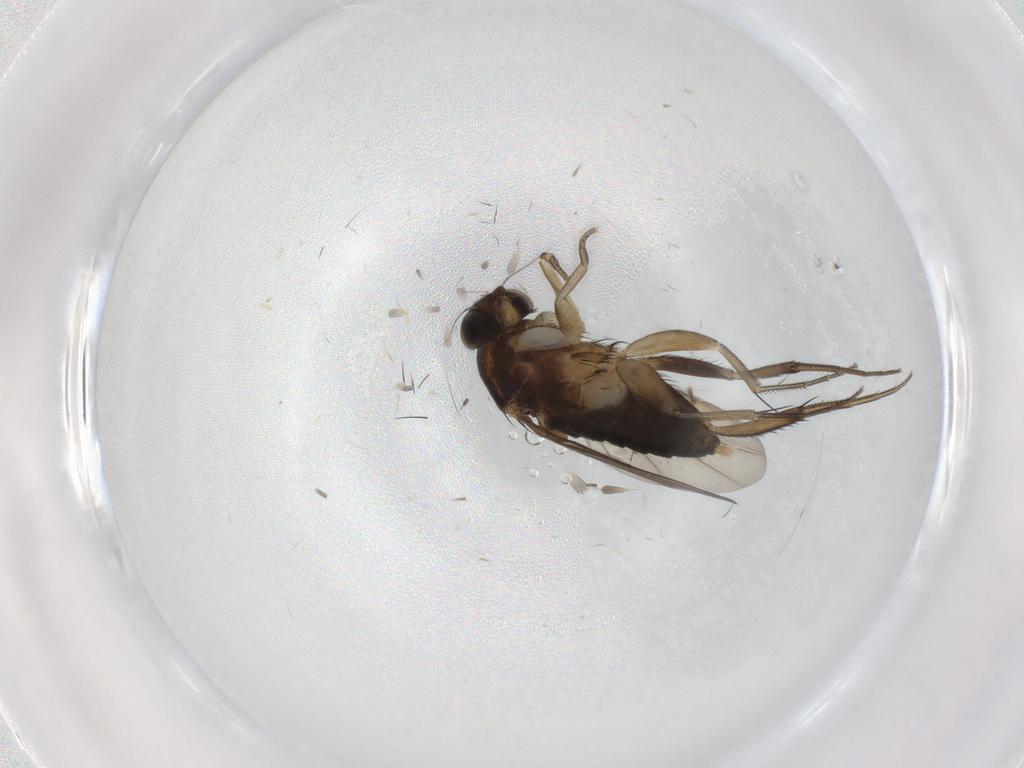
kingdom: Animalia
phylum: Arthropoda
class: Insecta
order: Diptera
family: Phoridae
